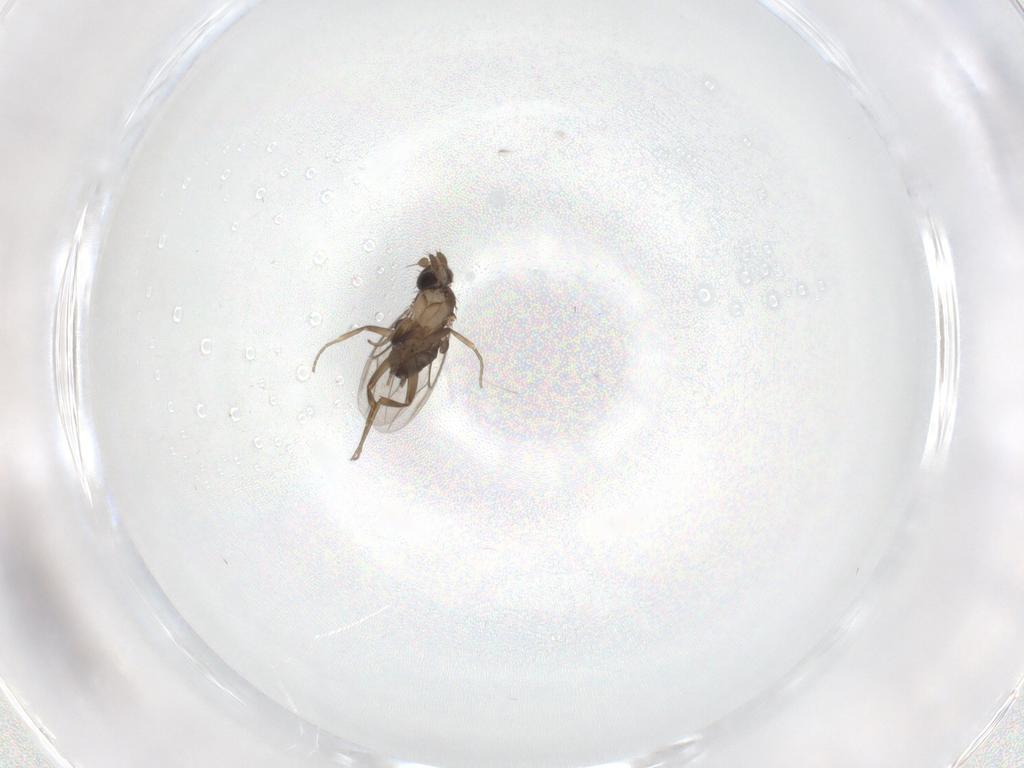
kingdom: Animalia
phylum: Arthropoda
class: Insecta
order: Diptera
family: Phoridae
